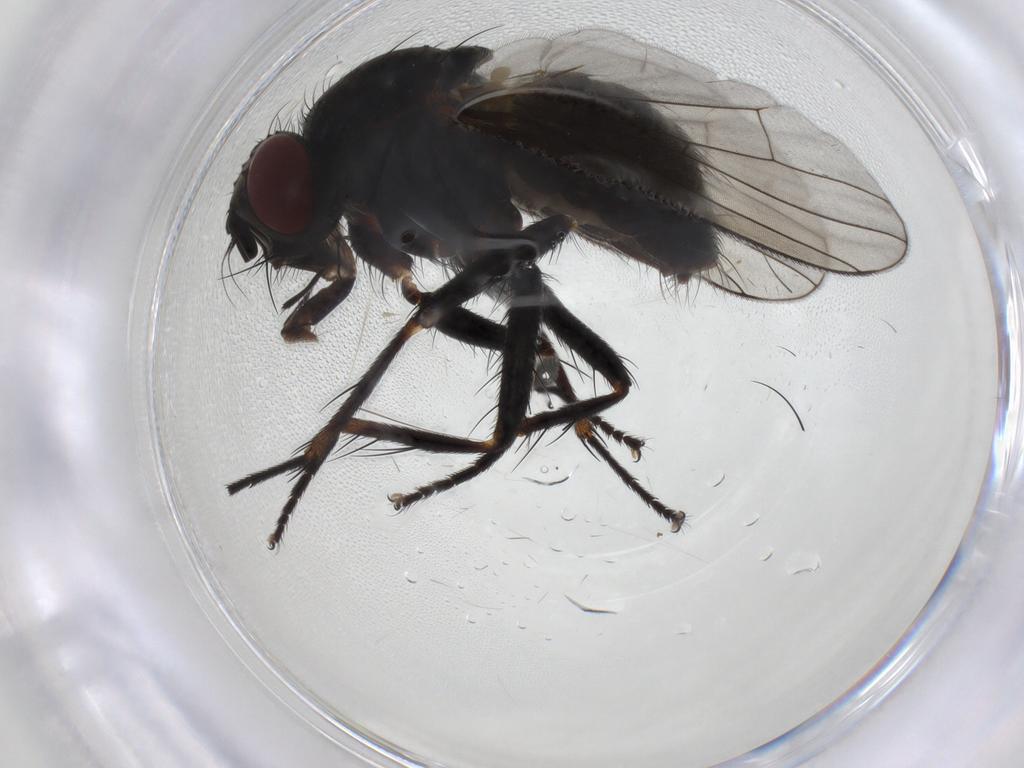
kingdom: Animalia
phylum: Arthropoda
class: Insecta
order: Diptera
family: Muscidae
